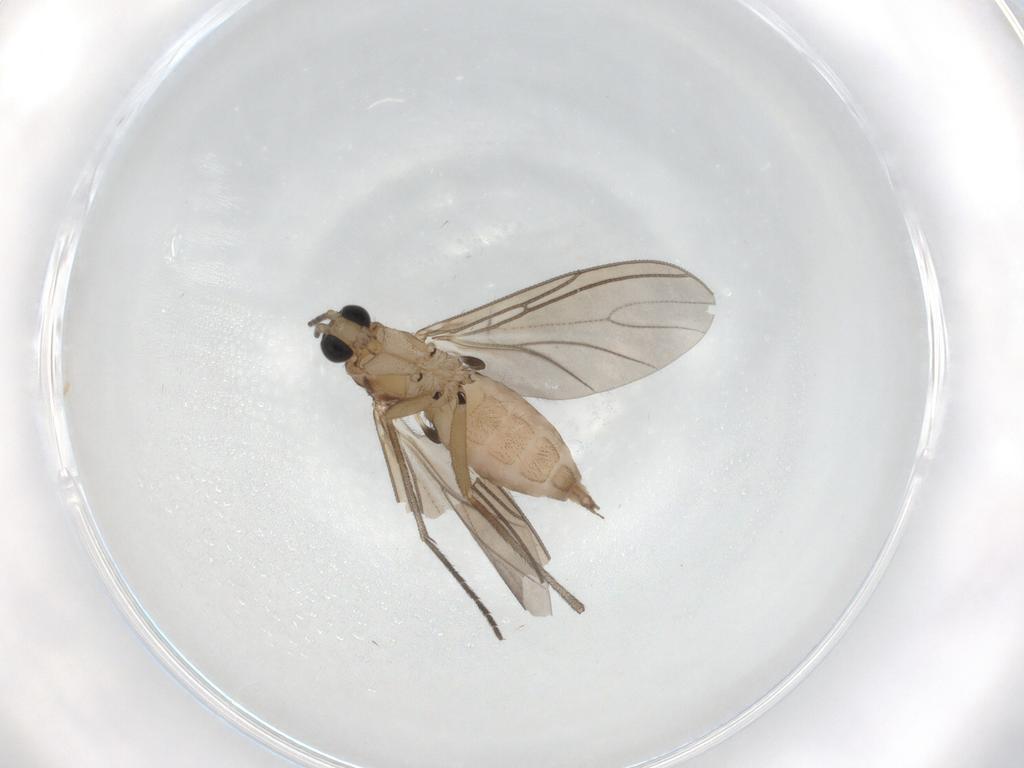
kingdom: Animalia
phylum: Arthropoda
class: Insecta
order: Diptera
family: Sciaridae
